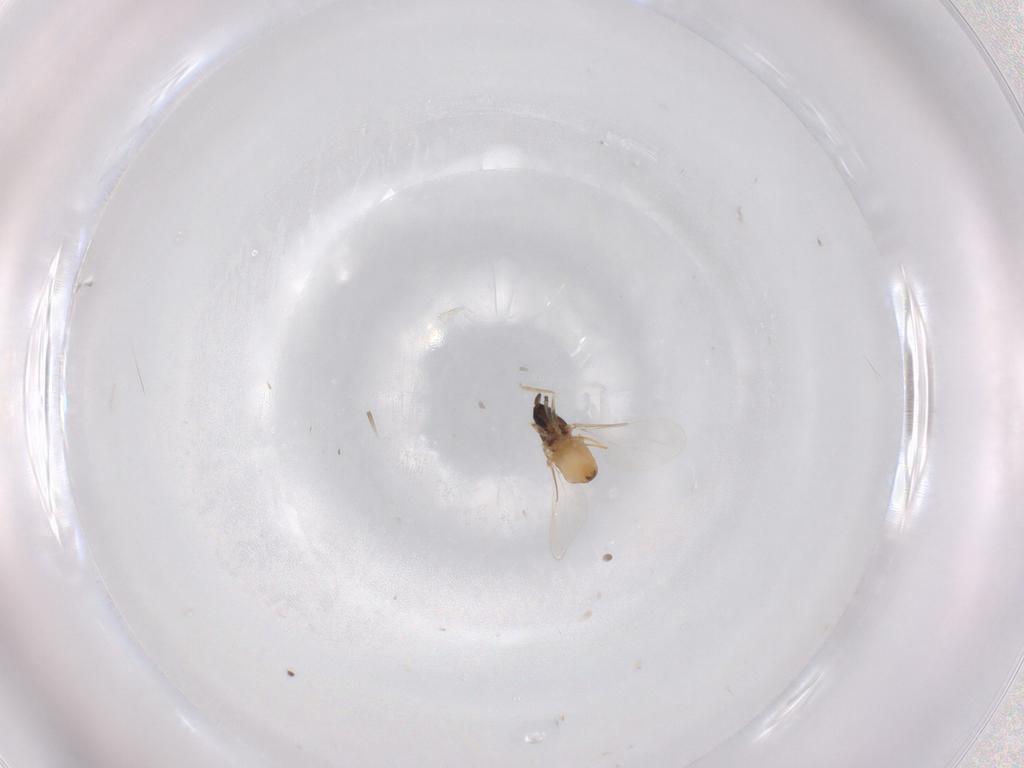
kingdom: Animalia
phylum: Arthropoda
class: Insecta
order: Diptera
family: Cecidomyiidae
